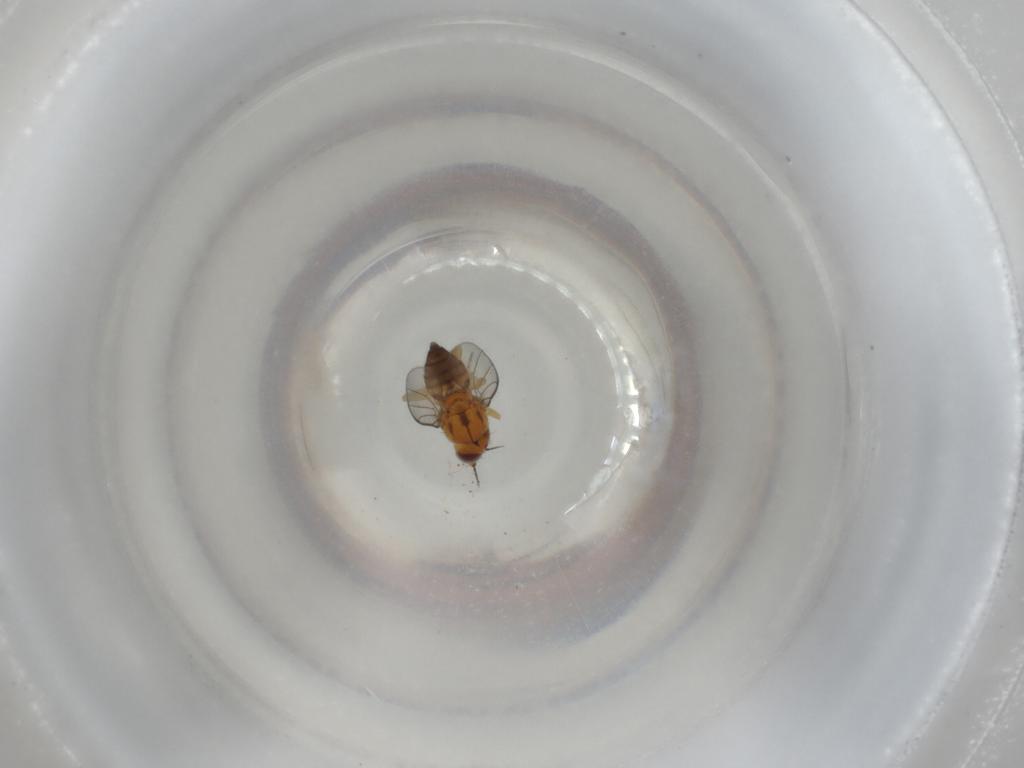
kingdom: Animalia
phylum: Arthropoda
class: Insecta
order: Diptera
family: Chloropidae
